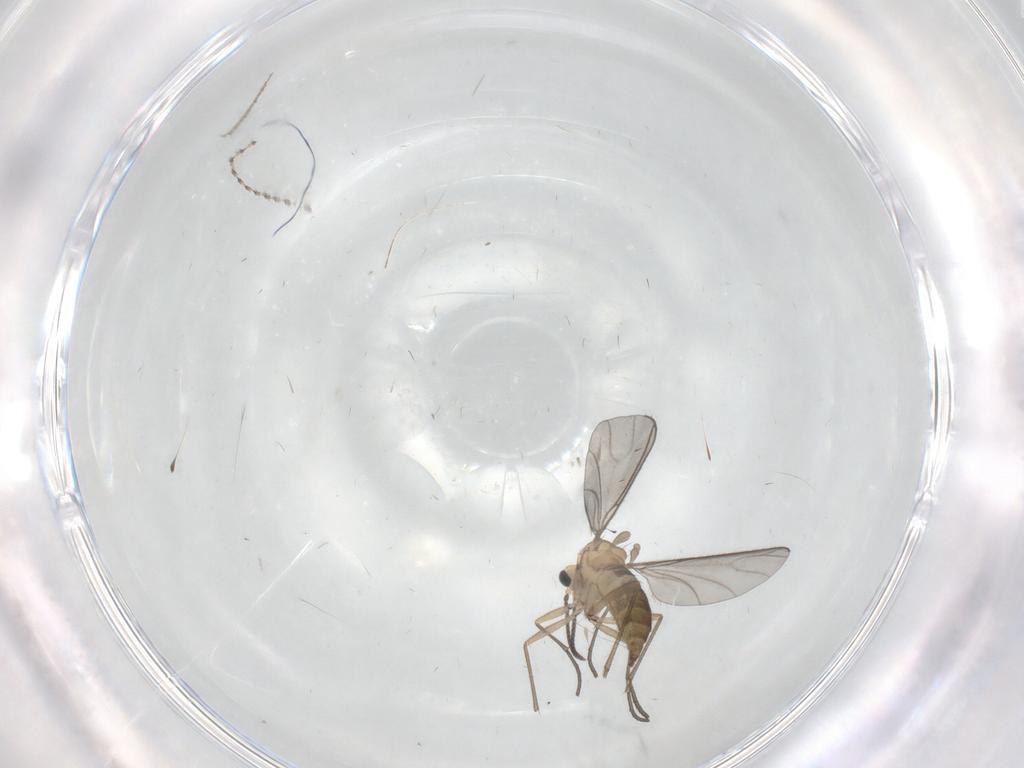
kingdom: Animalia
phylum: Arthropoda
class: Insecta
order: Diptera
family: Sciaridae
